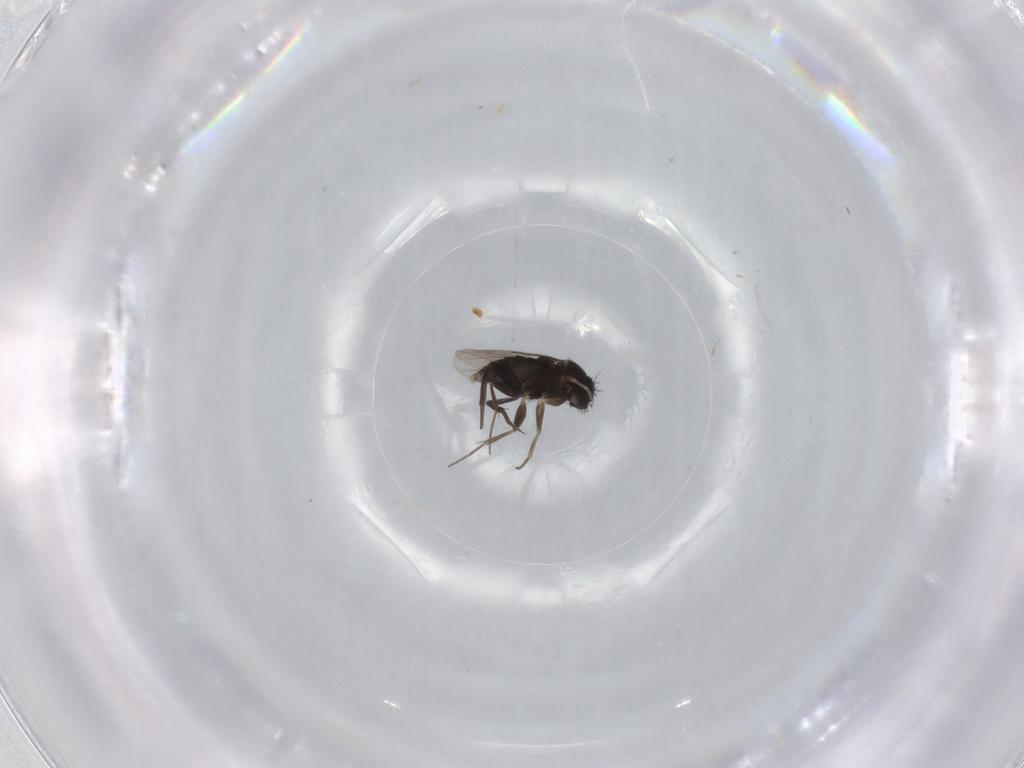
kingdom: Animalia
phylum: Arthropoda
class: Insecta
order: Diptera
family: Phoridae
